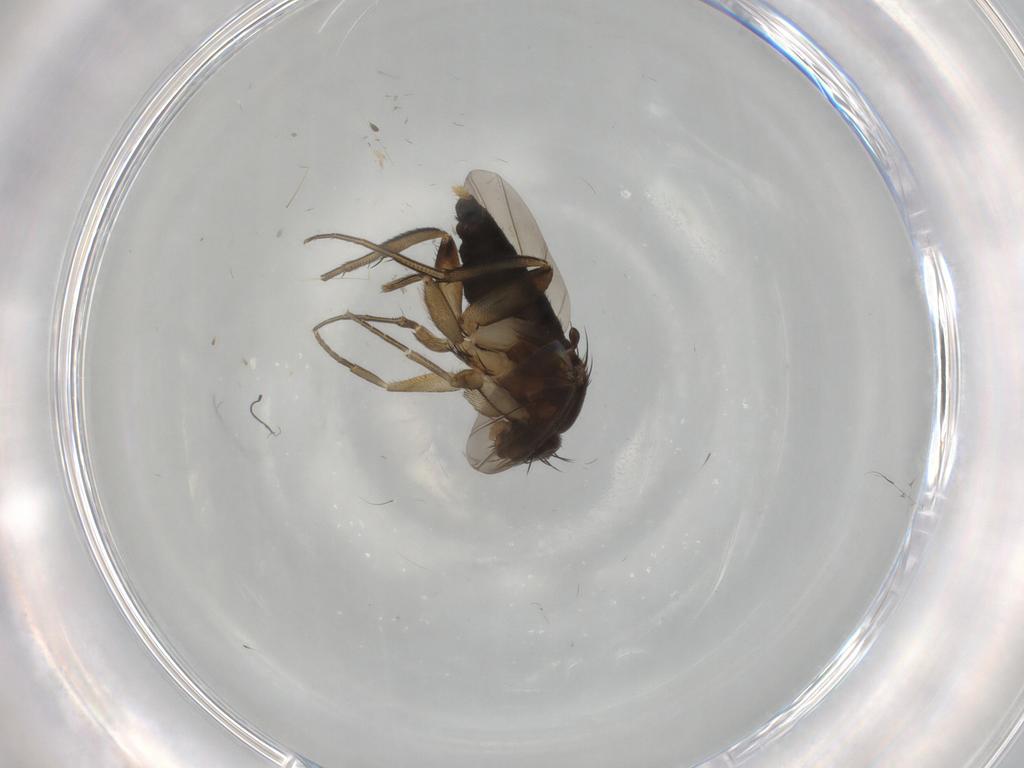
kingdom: Animalia
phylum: Arthropoda
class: Insecta
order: Diptera
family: Phoridae
